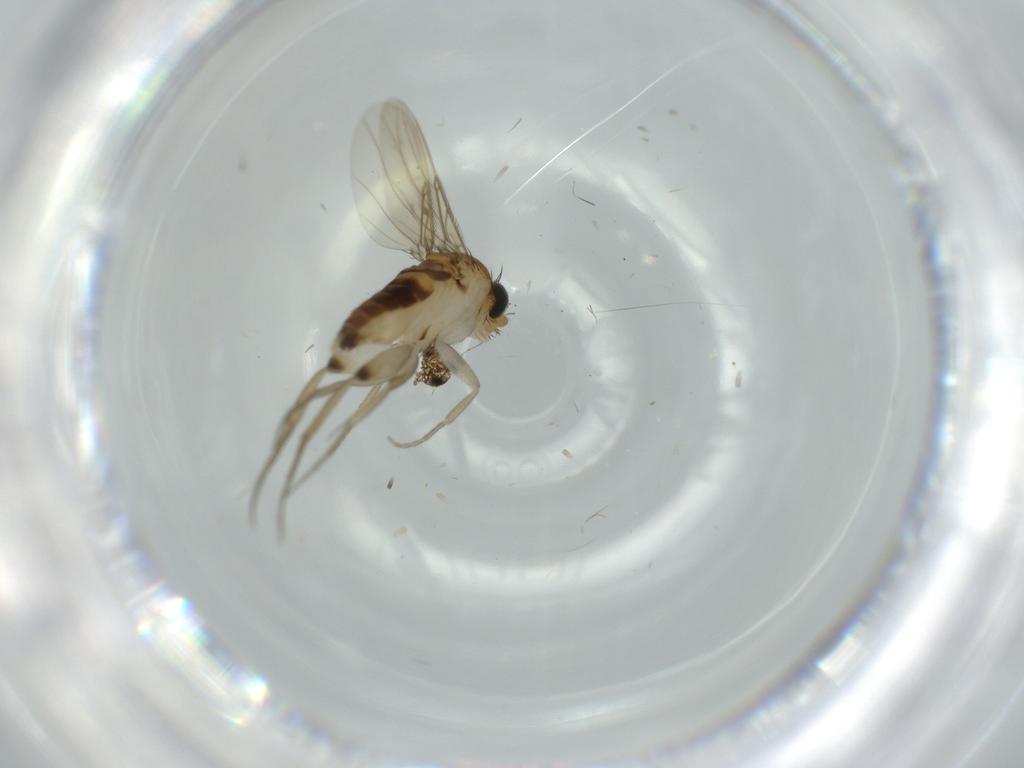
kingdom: Animalia
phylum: Arthropoda
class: Insecta
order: Diptera
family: Phoridae
